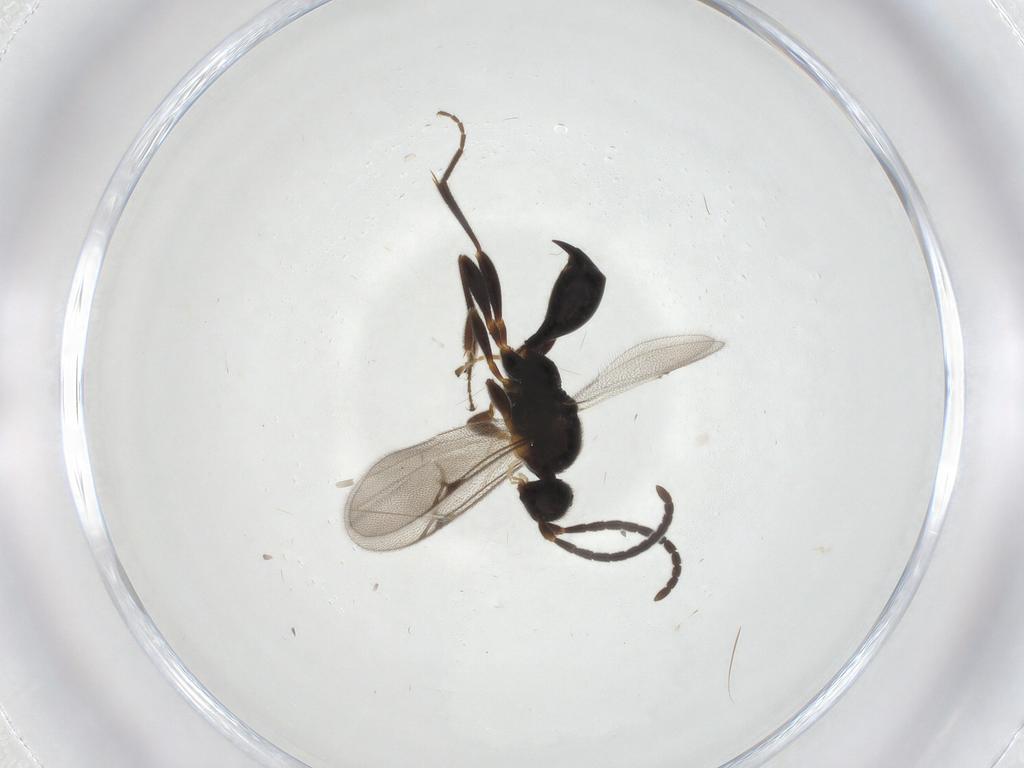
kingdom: Animalia
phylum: Arthropoda
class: Insecta
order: Hymenoptera
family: Proctotrupidae
